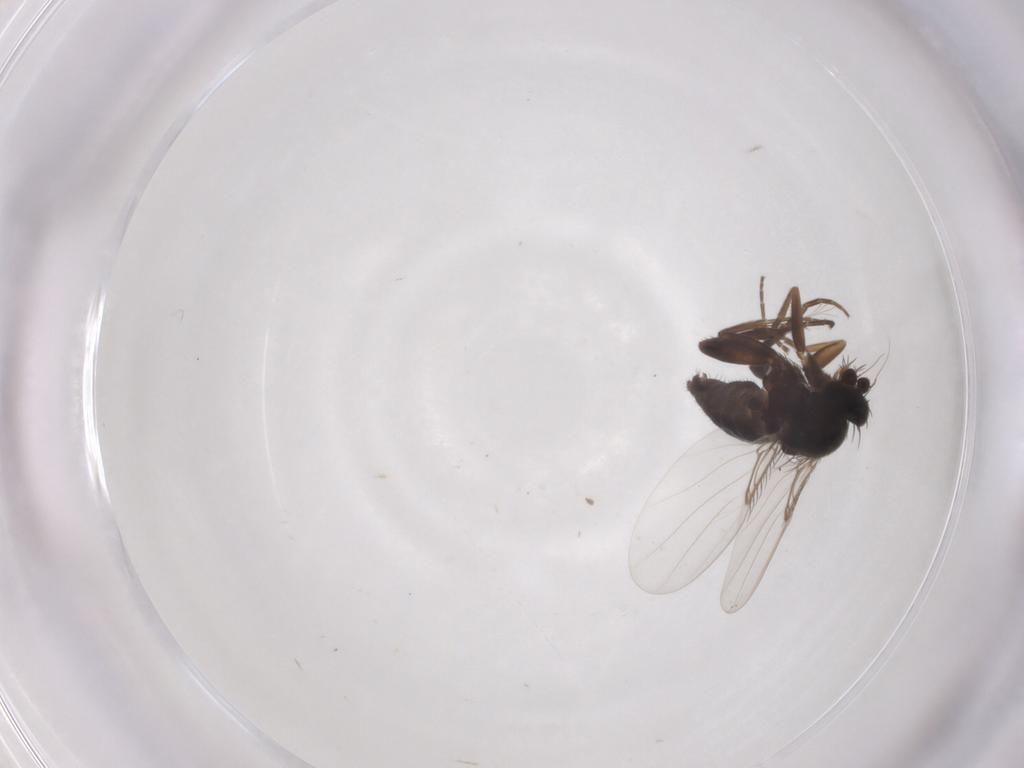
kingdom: Animalia
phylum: Arthropoda
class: Insecta
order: Diptera
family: Phoridae
